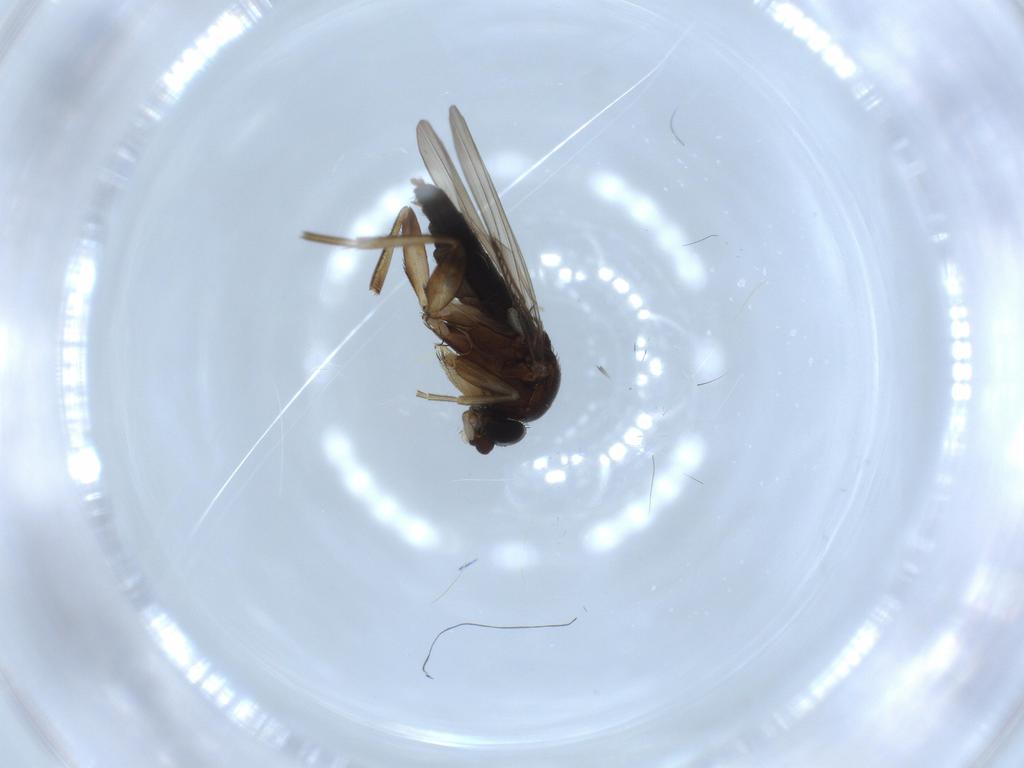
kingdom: Animalia
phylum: Arthropoda
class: Insecta
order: Diptera
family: Phoridae
